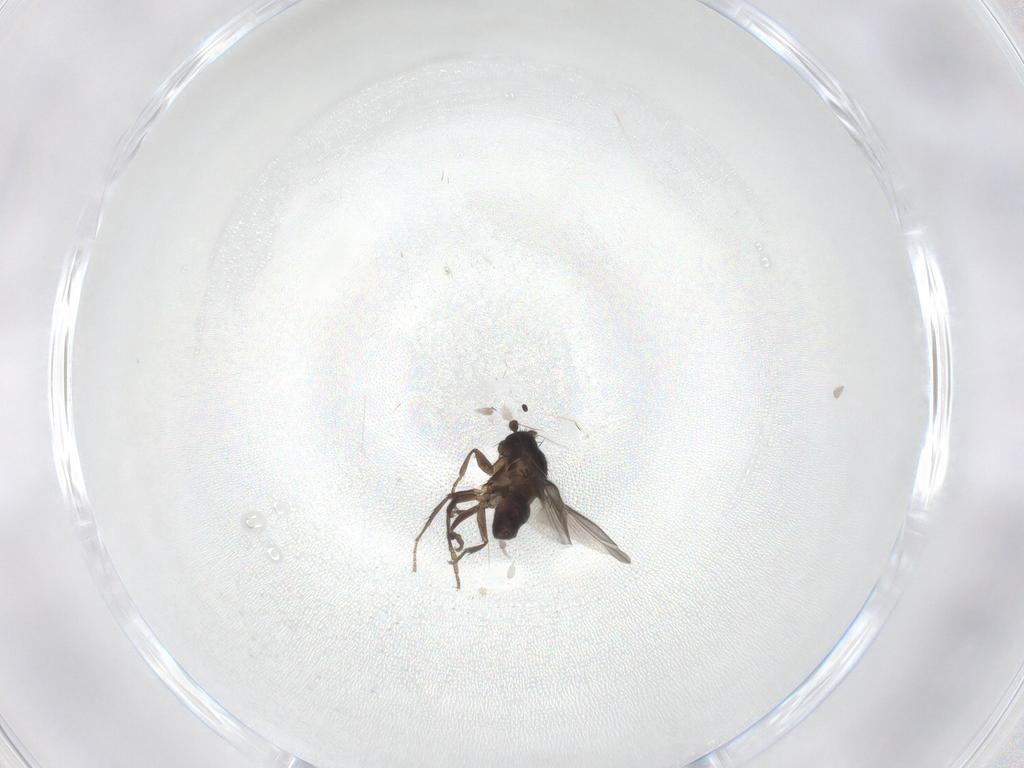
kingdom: Animalia
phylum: Arthropoda
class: Insecta
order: Diptera
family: Sphaeroceridae
